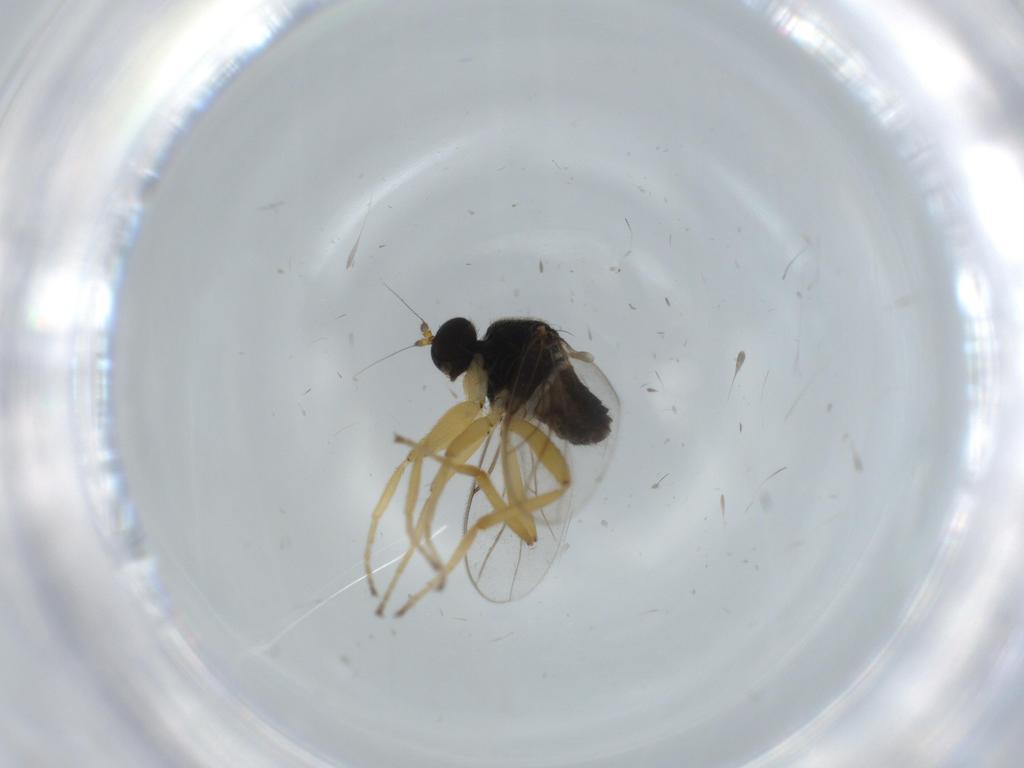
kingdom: Animalia
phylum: Arthropoda
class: Insecta
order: Diptera
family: Hybotidae
